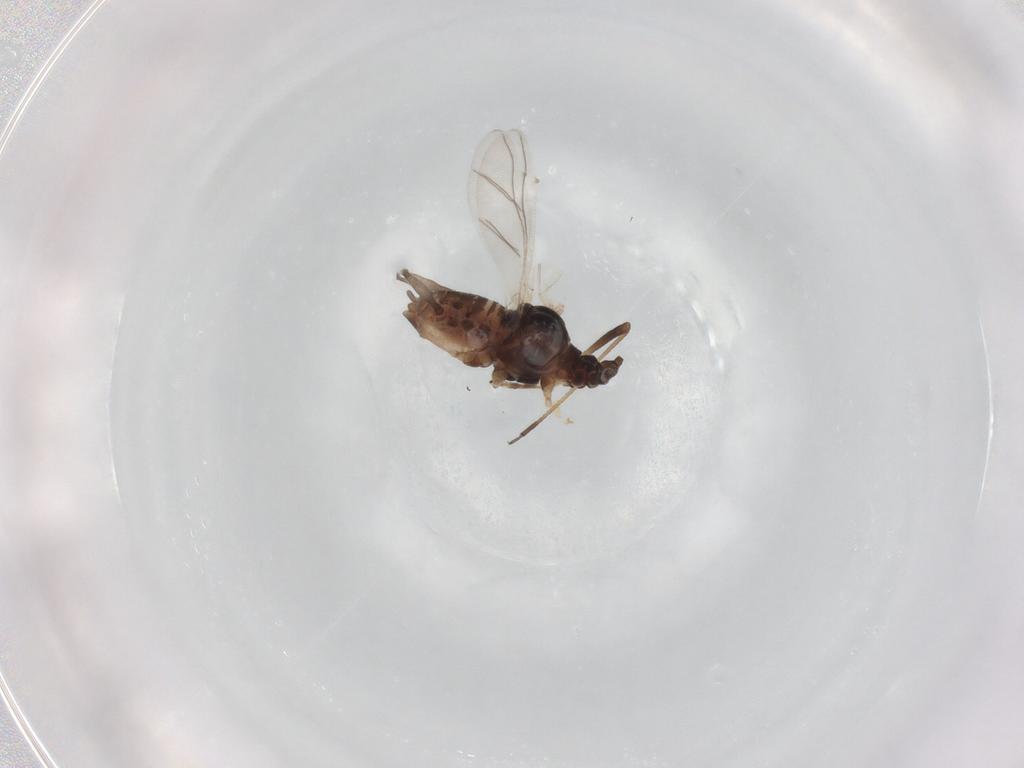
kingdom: Animalia
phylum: Arthropoda
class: Insecta
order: Hemiptera
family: Aphididae
